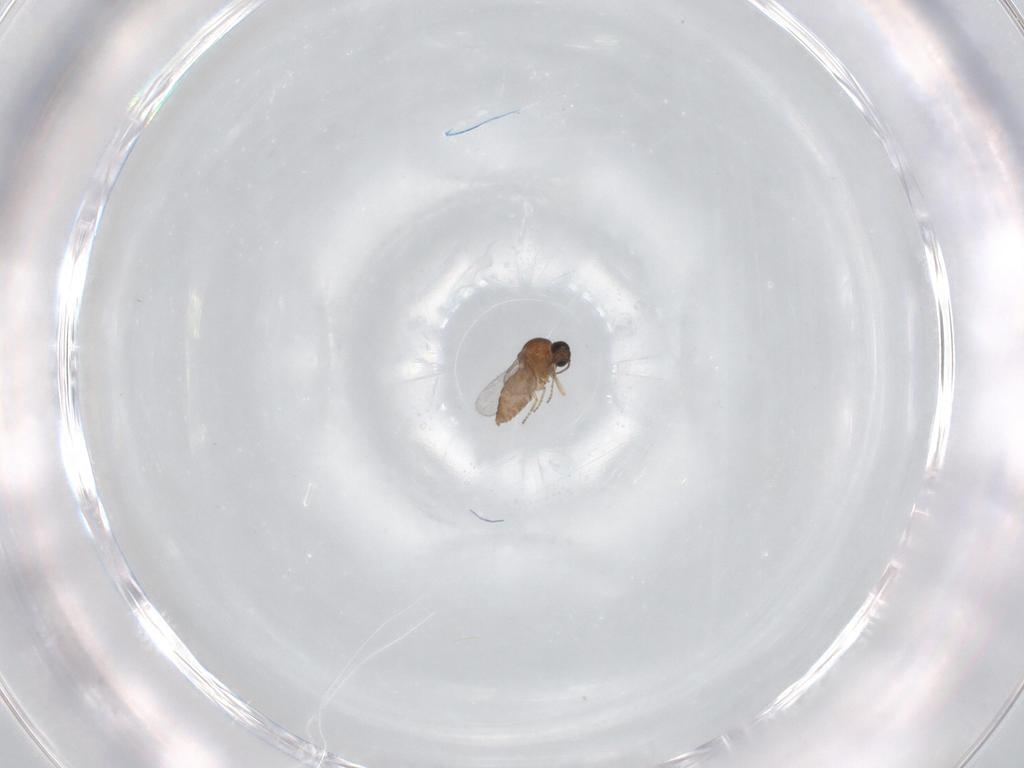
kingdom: Animalia
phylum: Arthropoda
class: Insecta
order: Diptera
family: Ceratopogonidae
